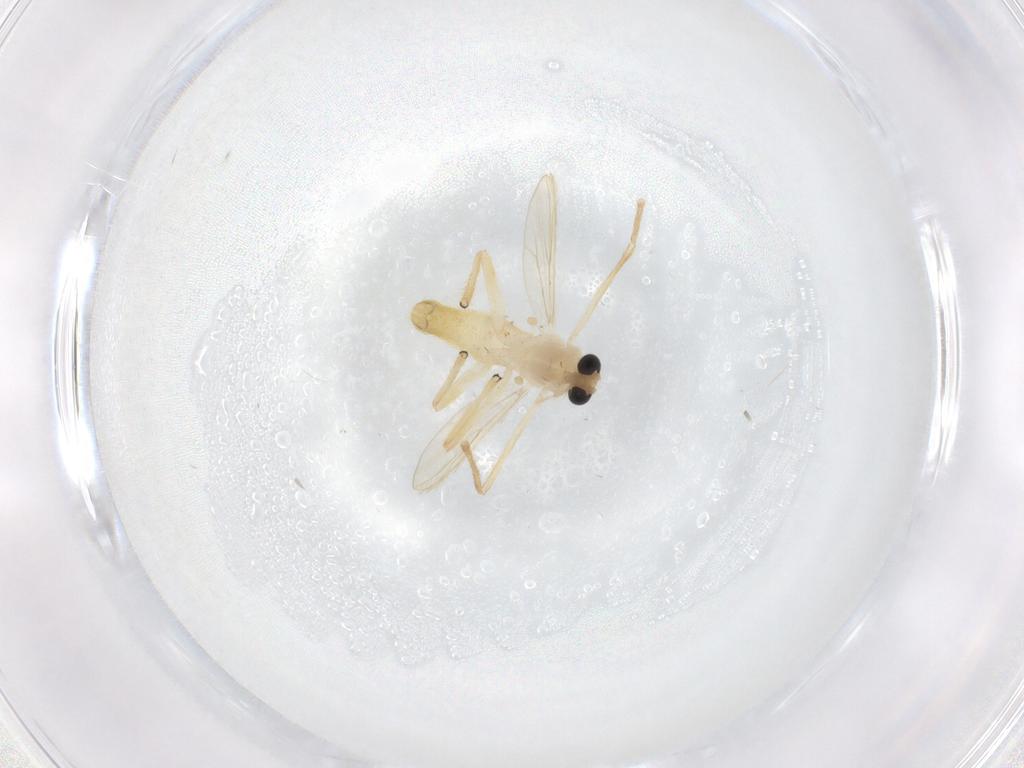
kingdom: Animalia
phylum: Arthropoda
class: Insecta
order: Diptera
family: Chironomidae
